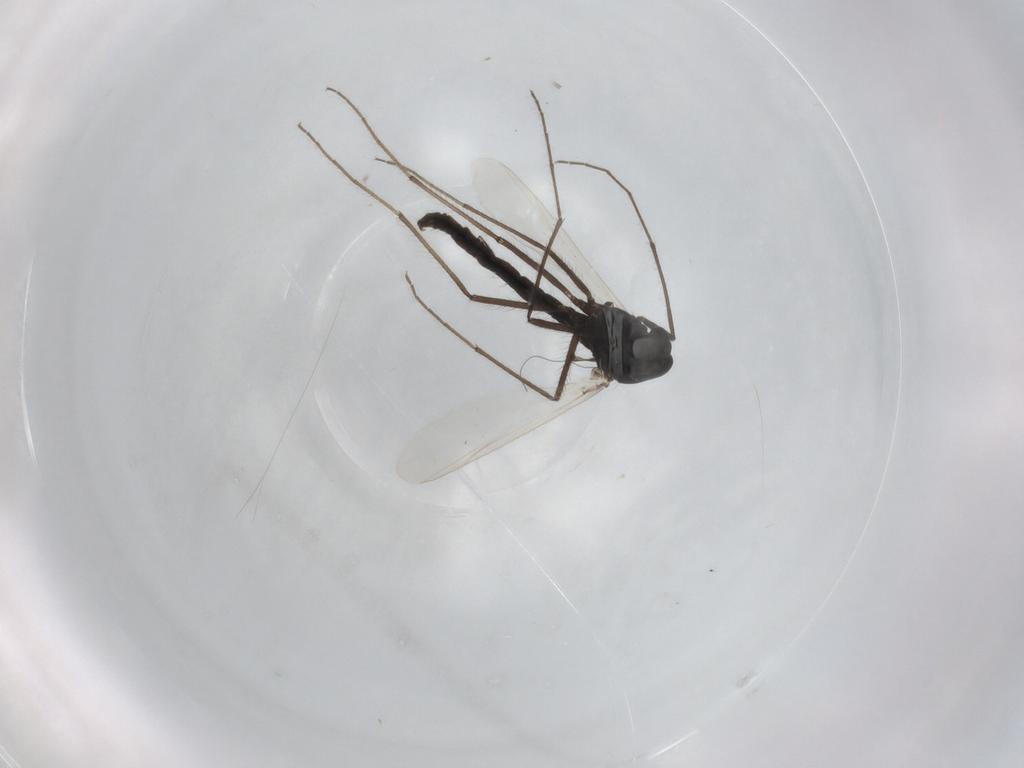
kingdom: Animalia
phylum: Arthropoda
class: Insecta
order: Diptera
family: Chironomidae
